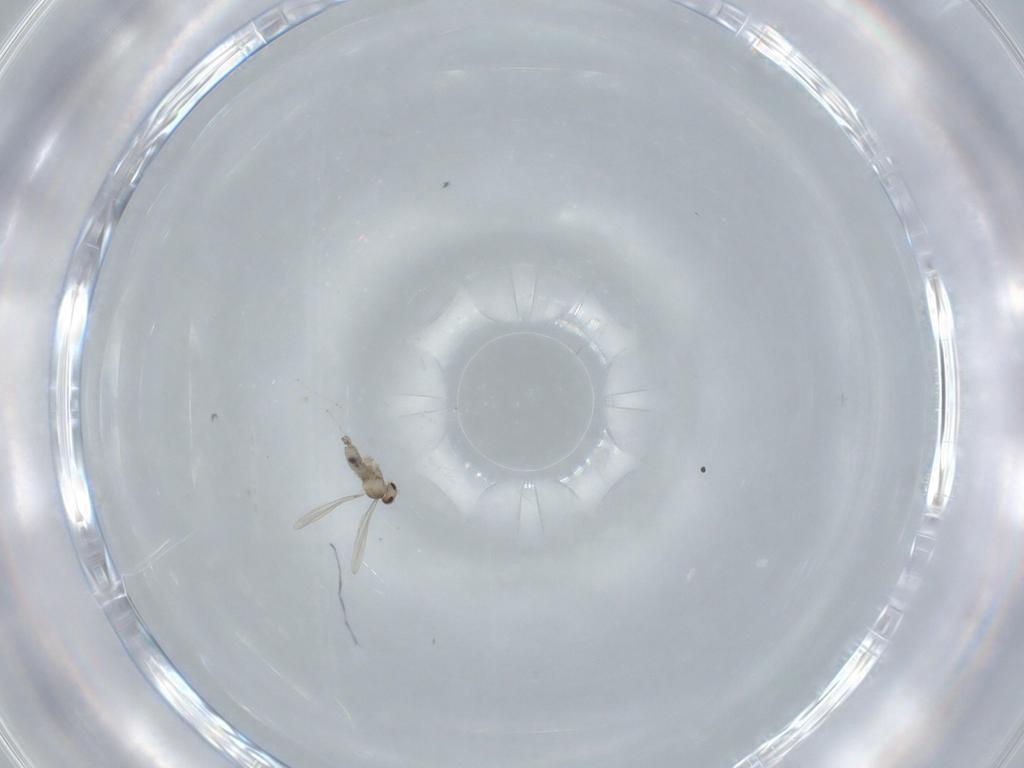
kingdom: Animalia
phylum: Arthropoda
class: Insecta
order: Diptera
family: Cecidomyiidae
